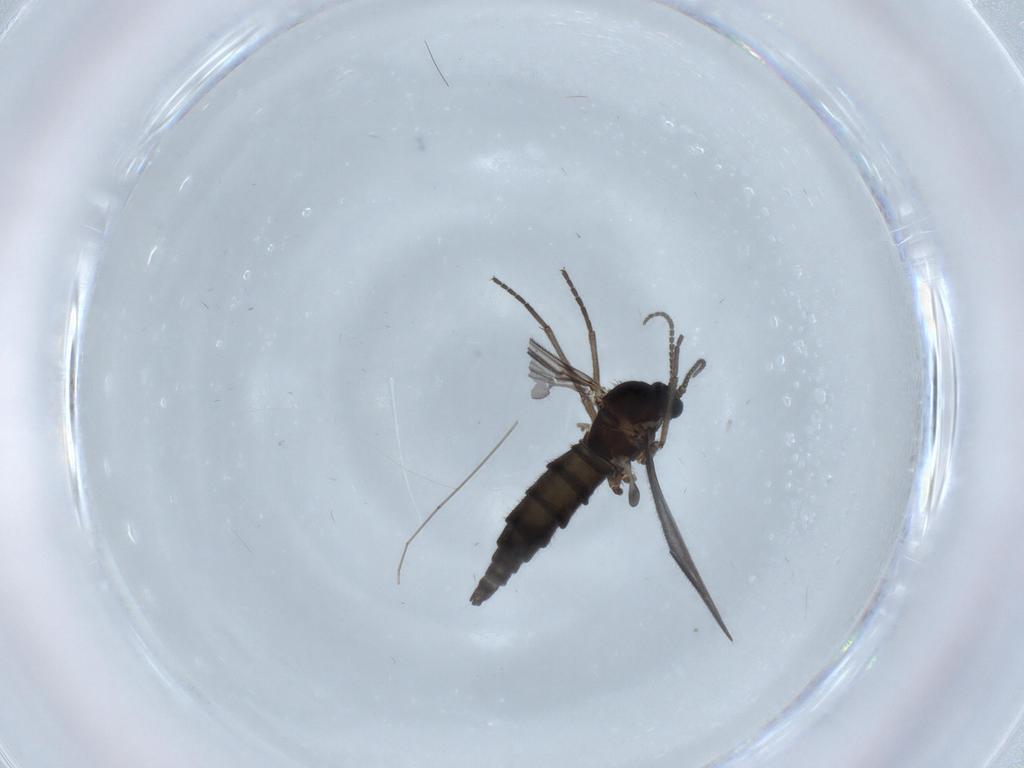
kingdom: Animalia
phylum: Arthropoda
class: Insecta
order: Diptera
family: Sciaridae
